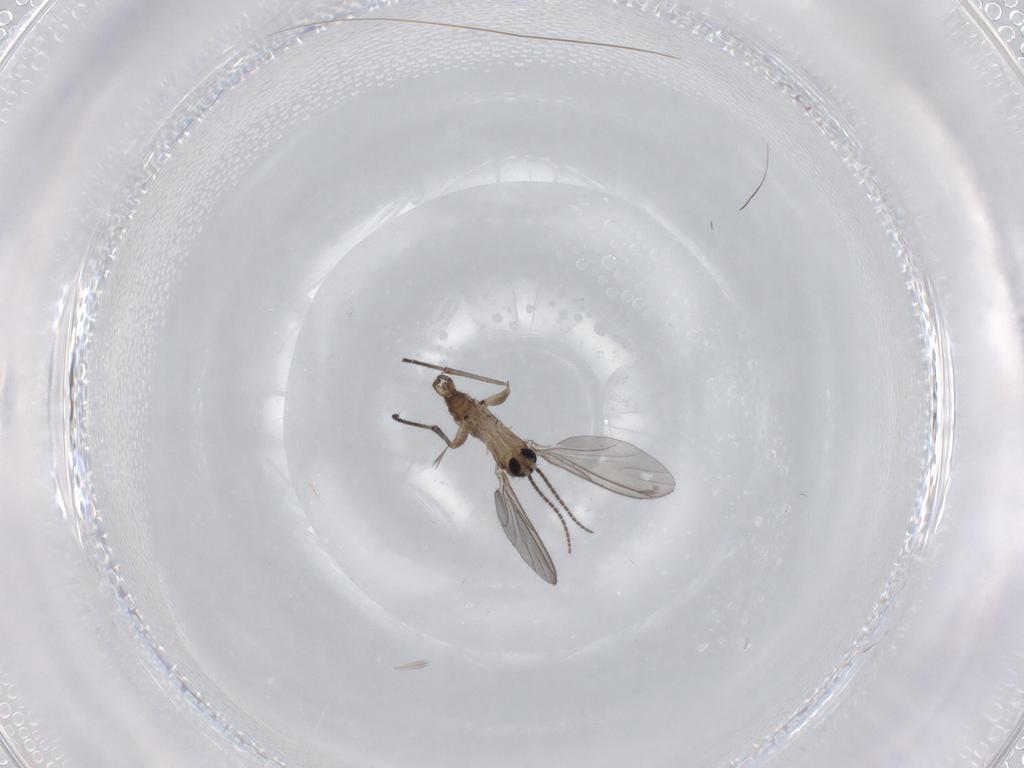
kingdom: Animalia
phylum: Arthropoda
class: Insecta
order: Diptera
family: Sciaridae
